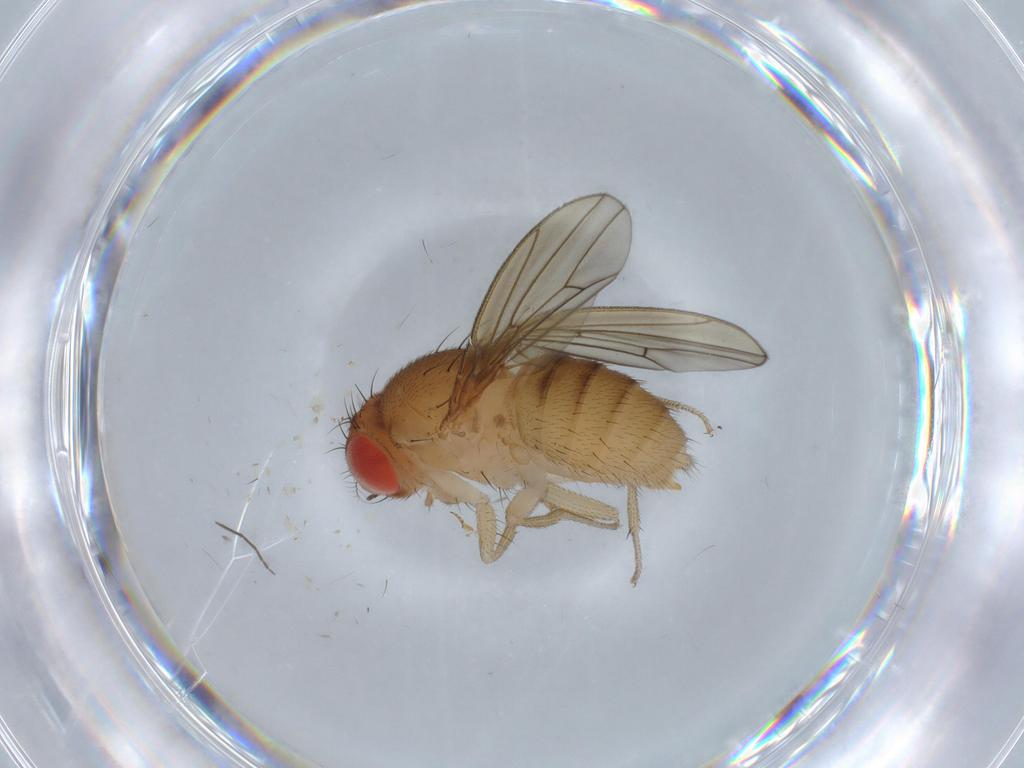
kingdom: Animalia
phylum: Arthropoda
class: Insecta
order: Diptera
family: Drosophilidae
